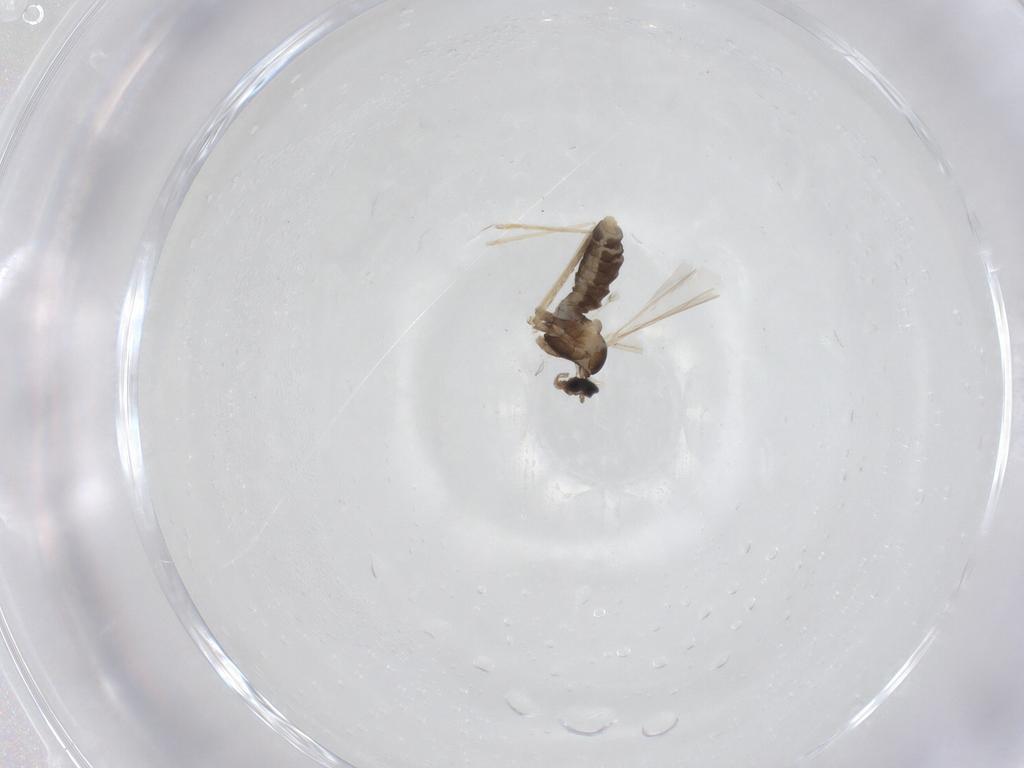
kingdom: Animalia
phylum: Arthropoda
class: Insecta
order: Diptera
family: Cecidomyiidae
